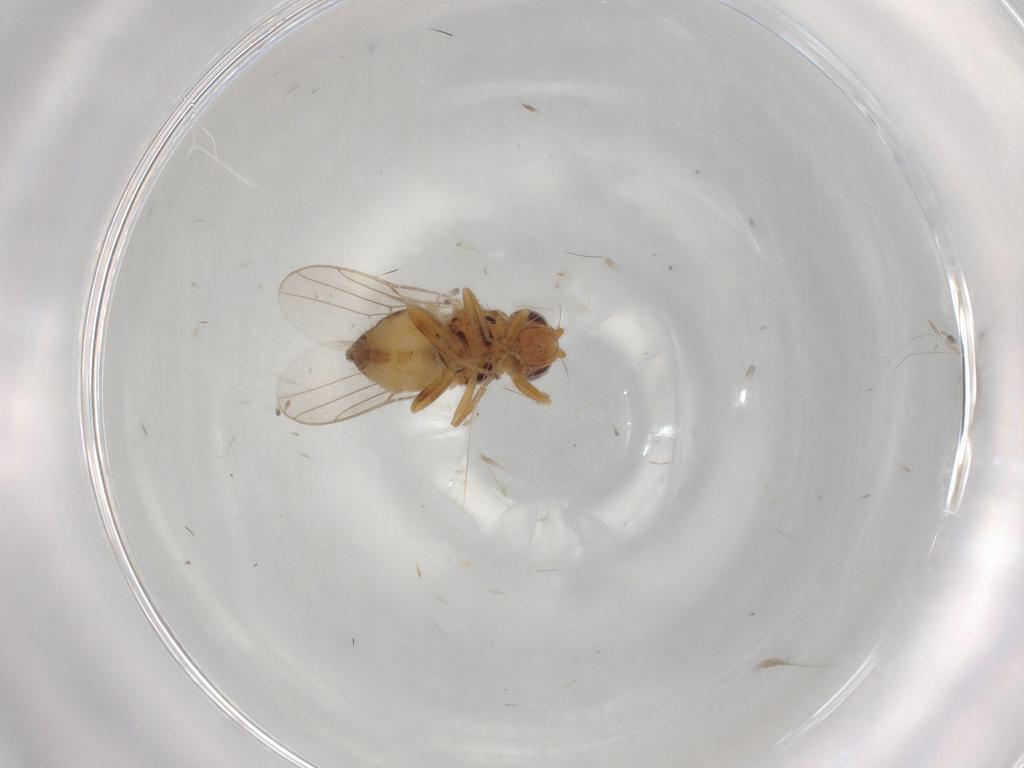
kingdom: Animalia
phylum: Arthropoda
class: Insecta
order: Diptera
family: Chloropidae
